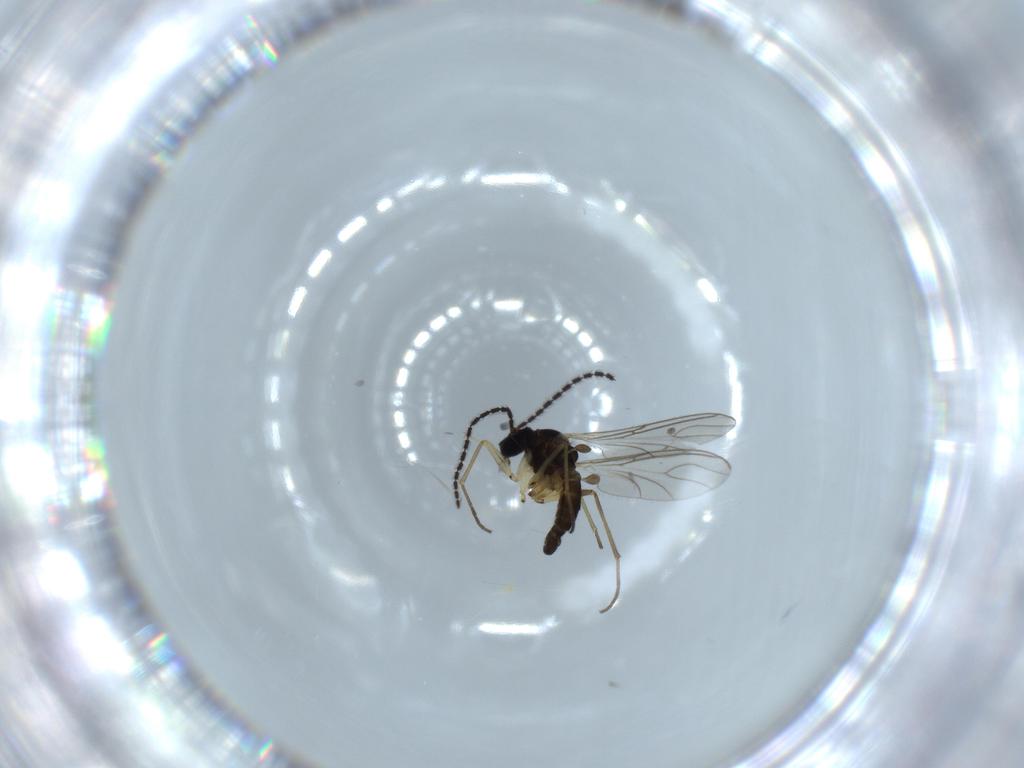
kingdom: Animalia
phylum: Arthropoda
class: Insecta
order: Diptera
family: Sciaridae
